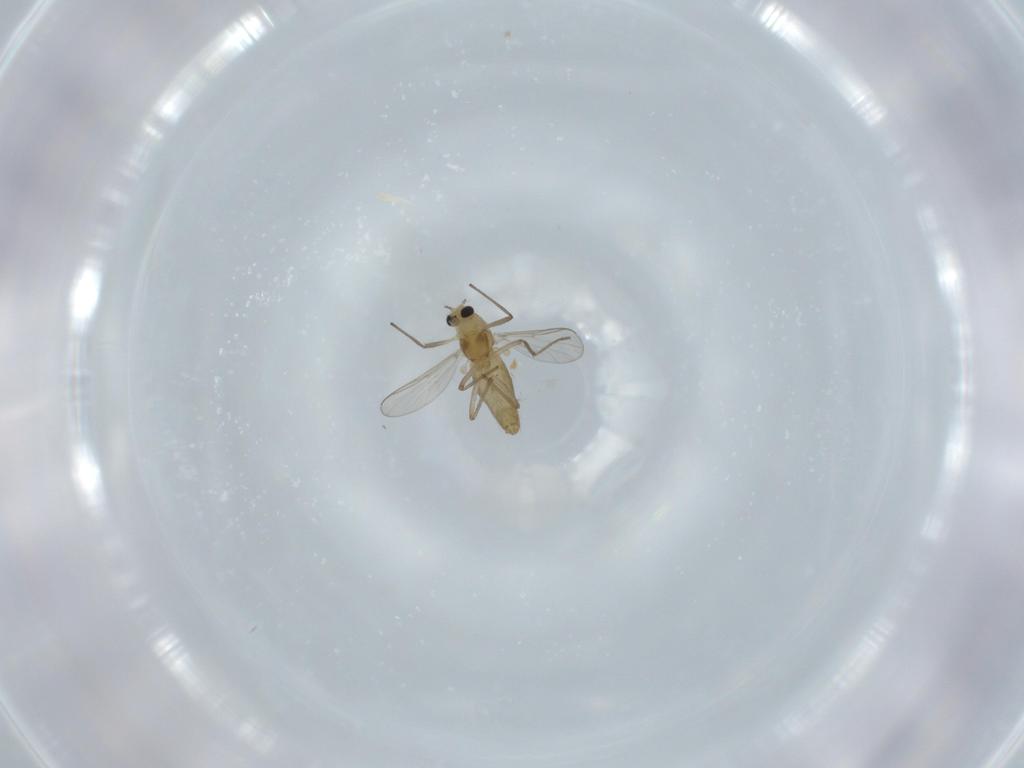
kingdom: Animalia
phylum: Arthropoda
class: Insecta
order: Diptera
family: Chironomidae
